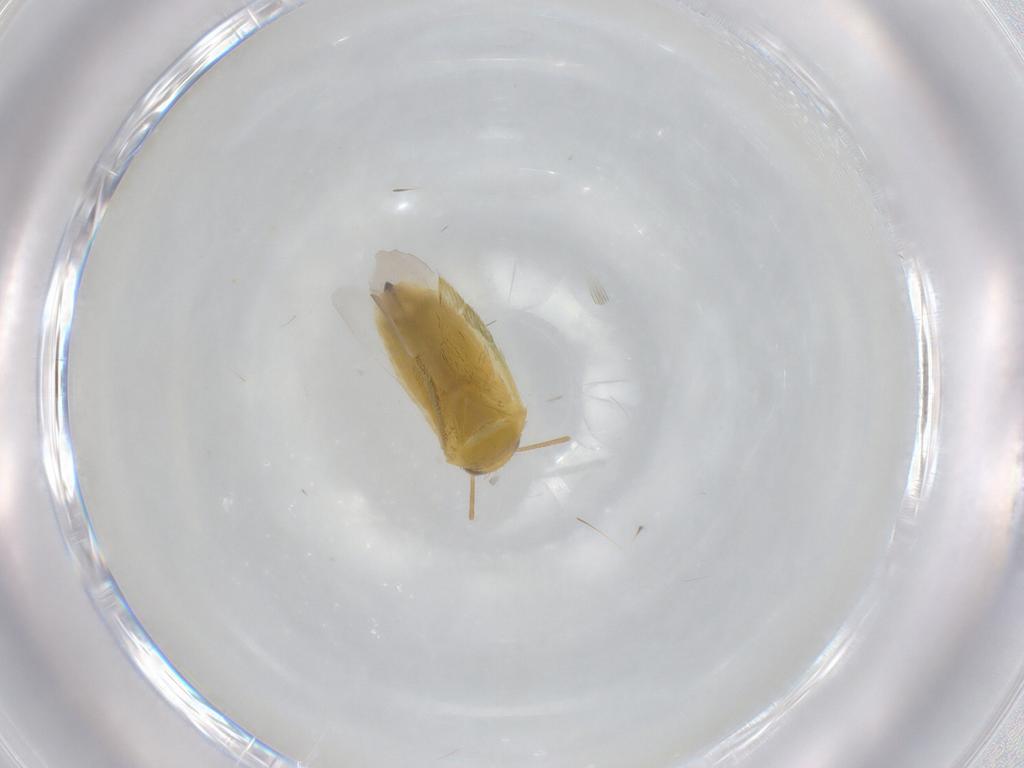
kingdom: Animalia
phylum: Arthropoda
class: Insecta
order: Hemiptera
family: Miridae
